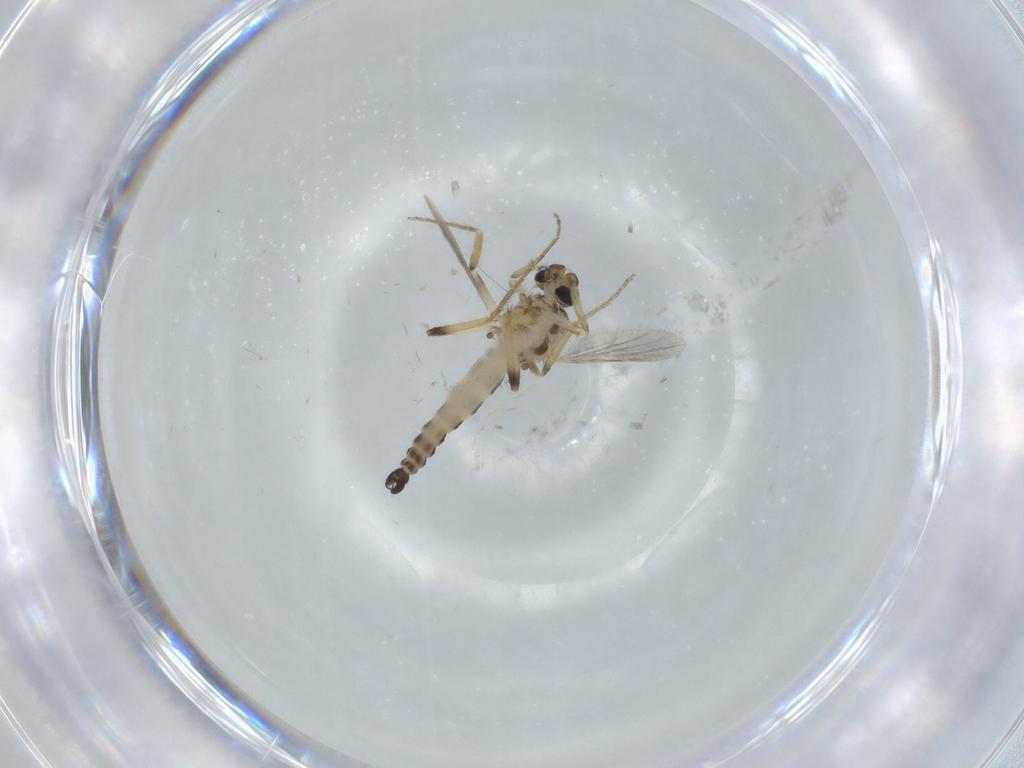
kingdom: Animalia
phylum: Arthropoda
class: Insecta
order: Diptera
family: Ceratopogonidae
